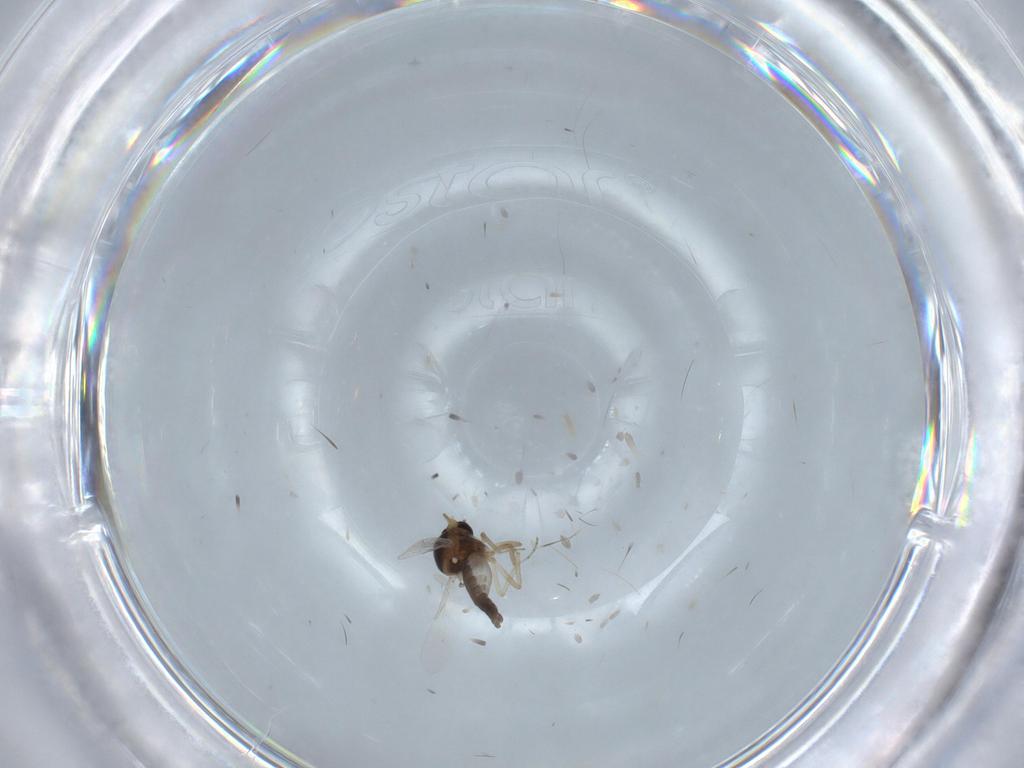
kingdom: Animalia
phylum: Arthropoda
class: Insecta
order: Diptera
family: Ceratopogonidae
